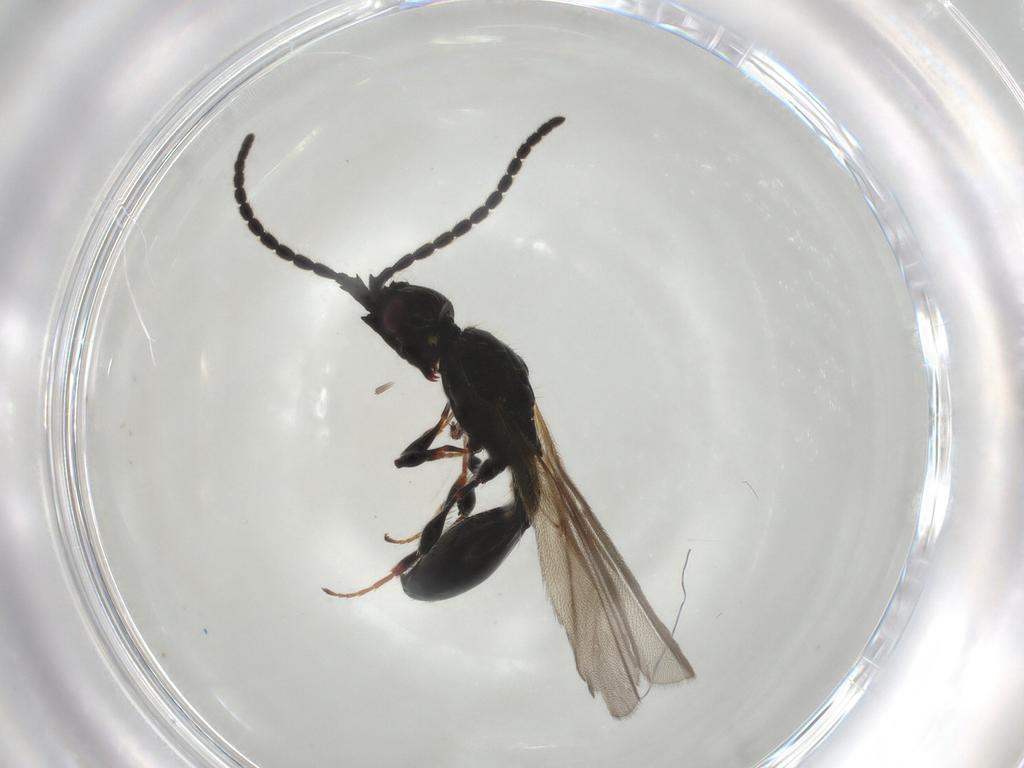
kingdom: Animalia
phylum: Arthropoda
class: Insecta
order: Hymenoptera
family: Diapriidae
